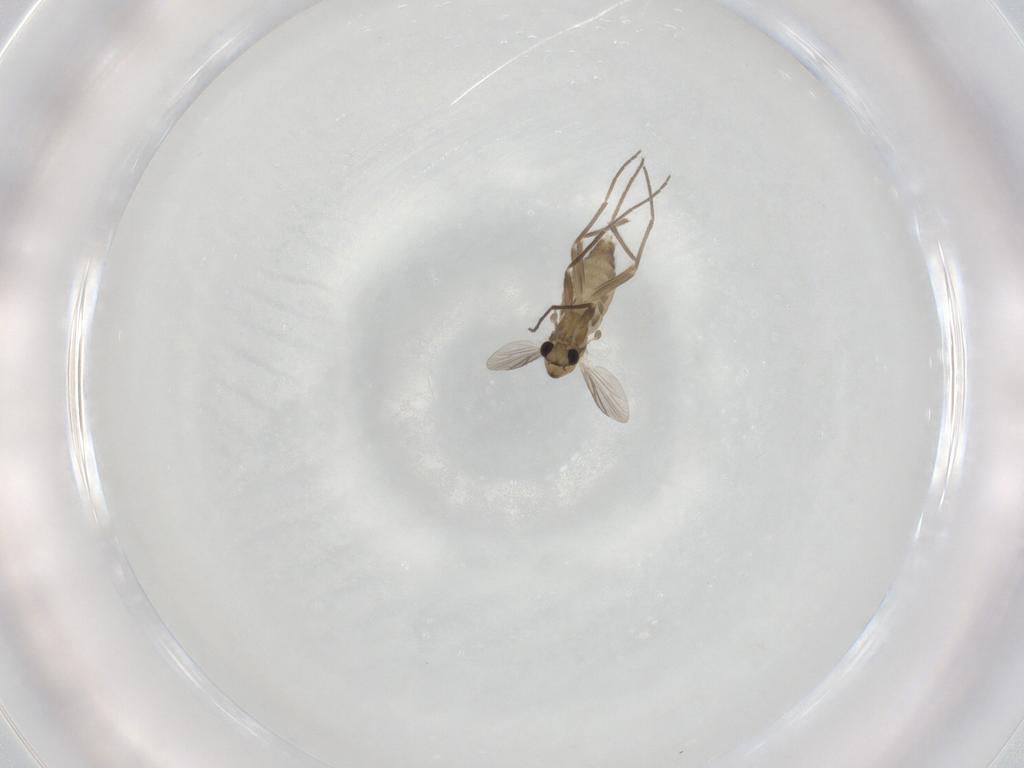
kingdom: Animalia
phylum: Arthropoda
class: Insecta
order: Diptera
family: Chironomidae
